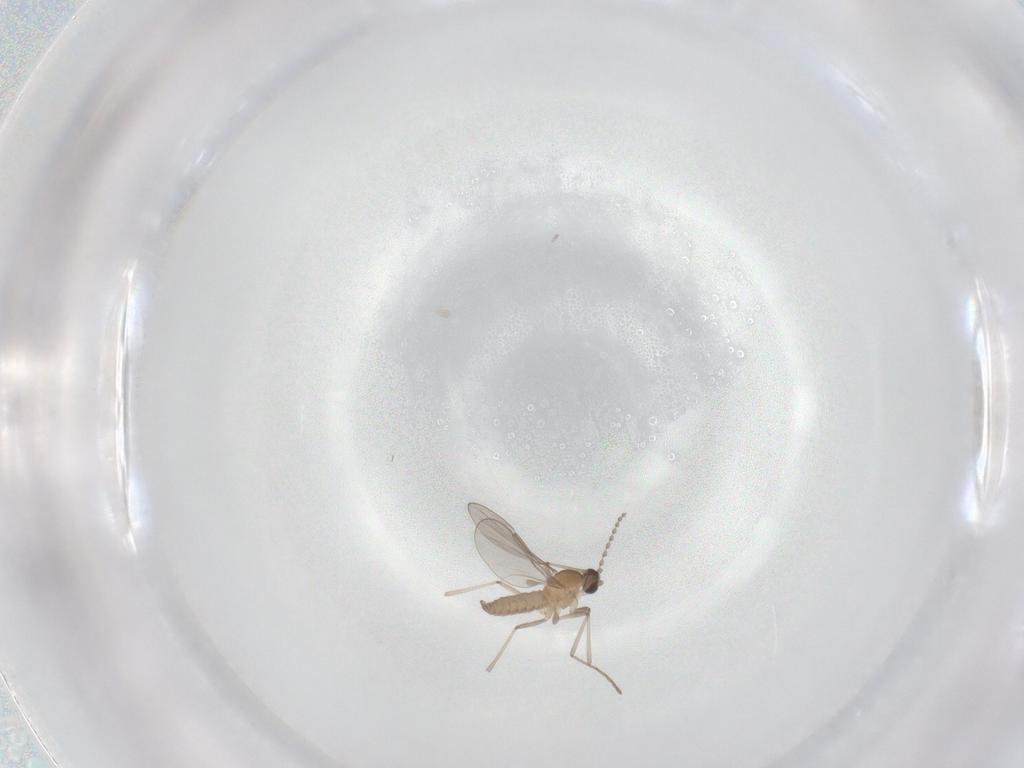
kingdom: Animalia
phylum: Arthropoda
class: Insecta
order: Diptera
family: Cecidomyiidae
